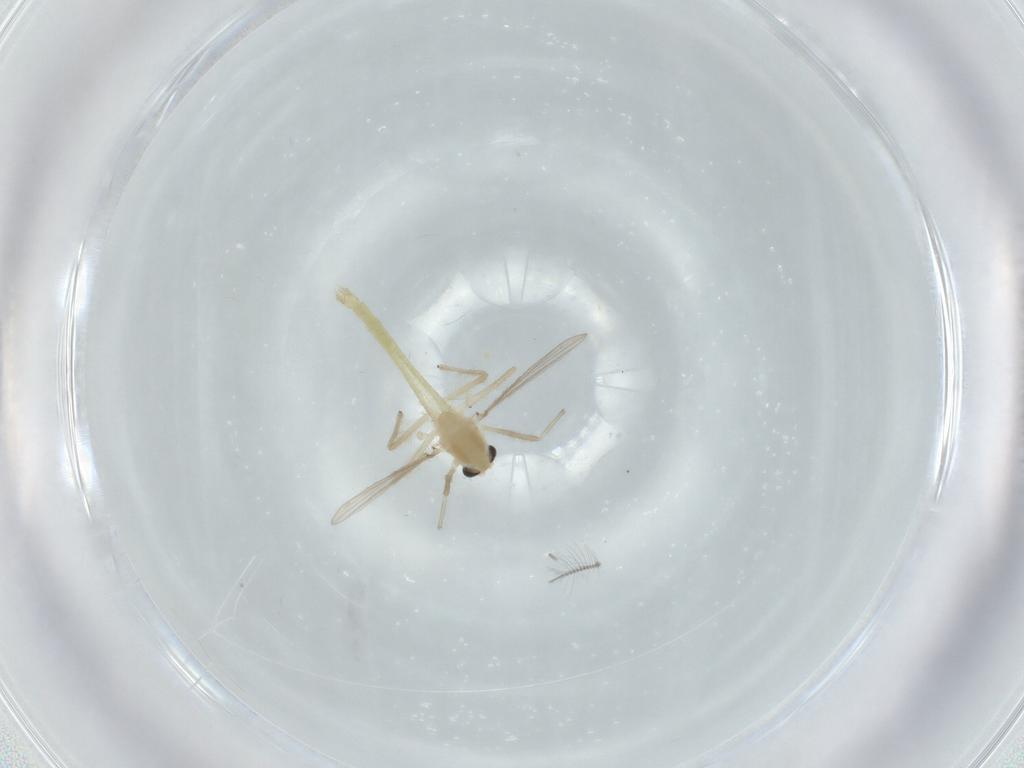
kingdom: Animalia
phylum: Arthropoda
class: Insecta
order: Diptera
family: Chironomidae
